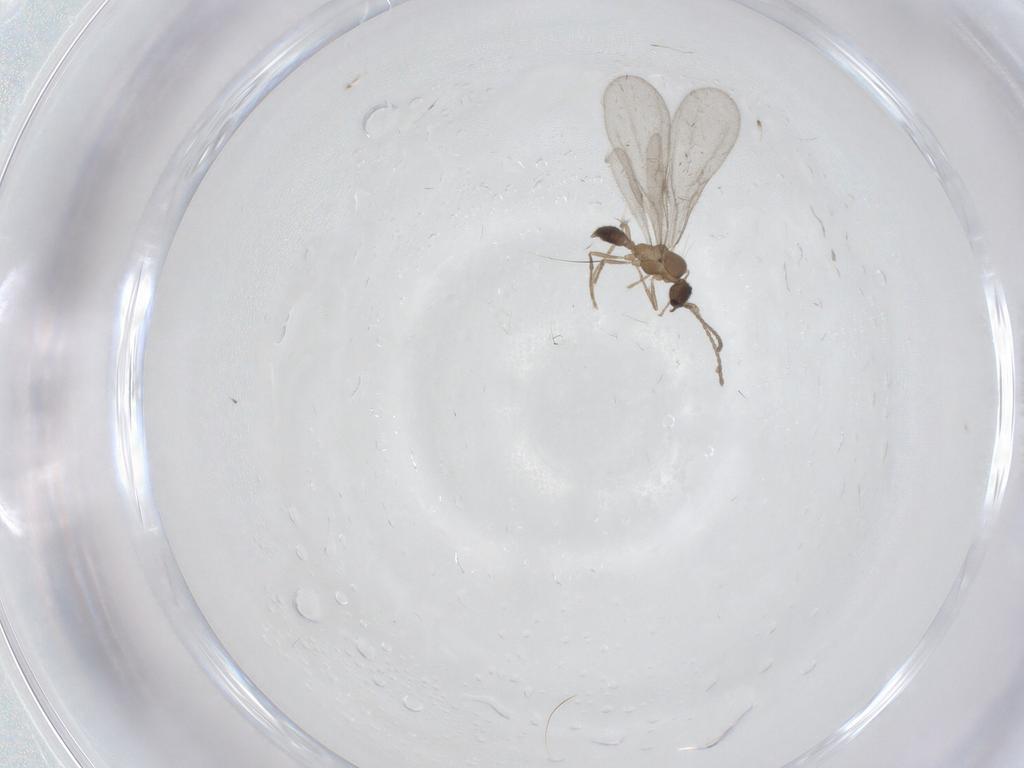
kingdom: Animalia
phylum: Arthropoda
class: Insecta
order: Hymenoptera
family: Formicidae
